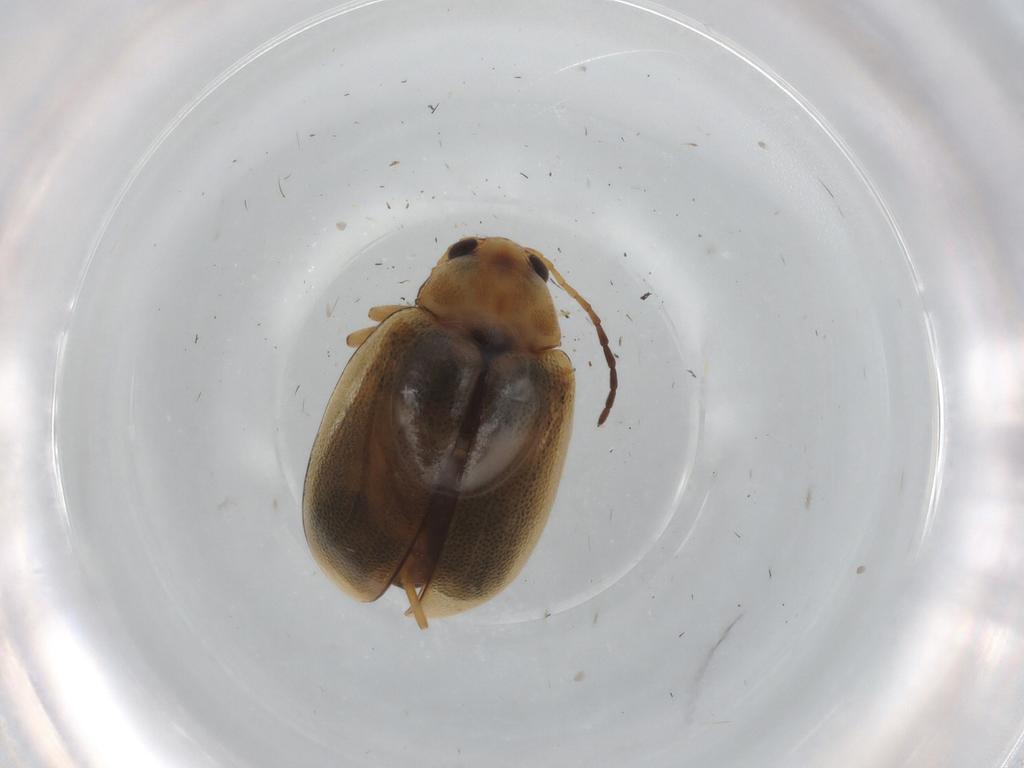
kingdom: Animalia
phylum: Arthropoda
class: Insecta
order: Coleoptera
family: Chrysomelidae
